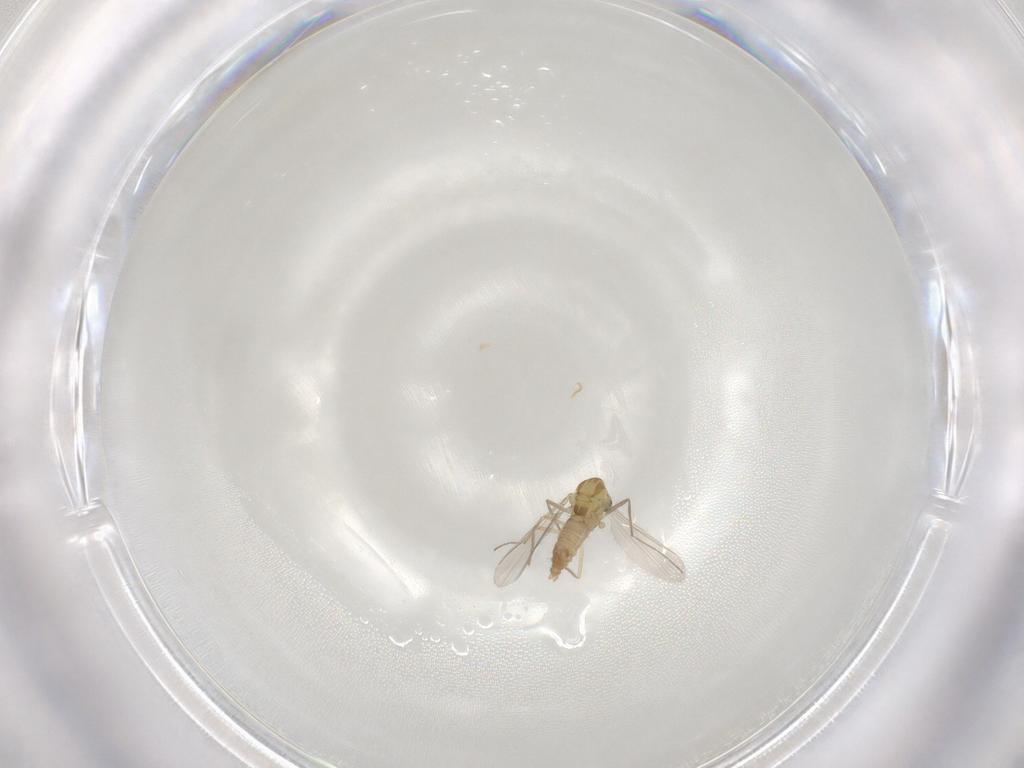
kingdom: Animalia
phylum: Arthropoda
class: Insecta
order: Diptera
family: Chironomidae
